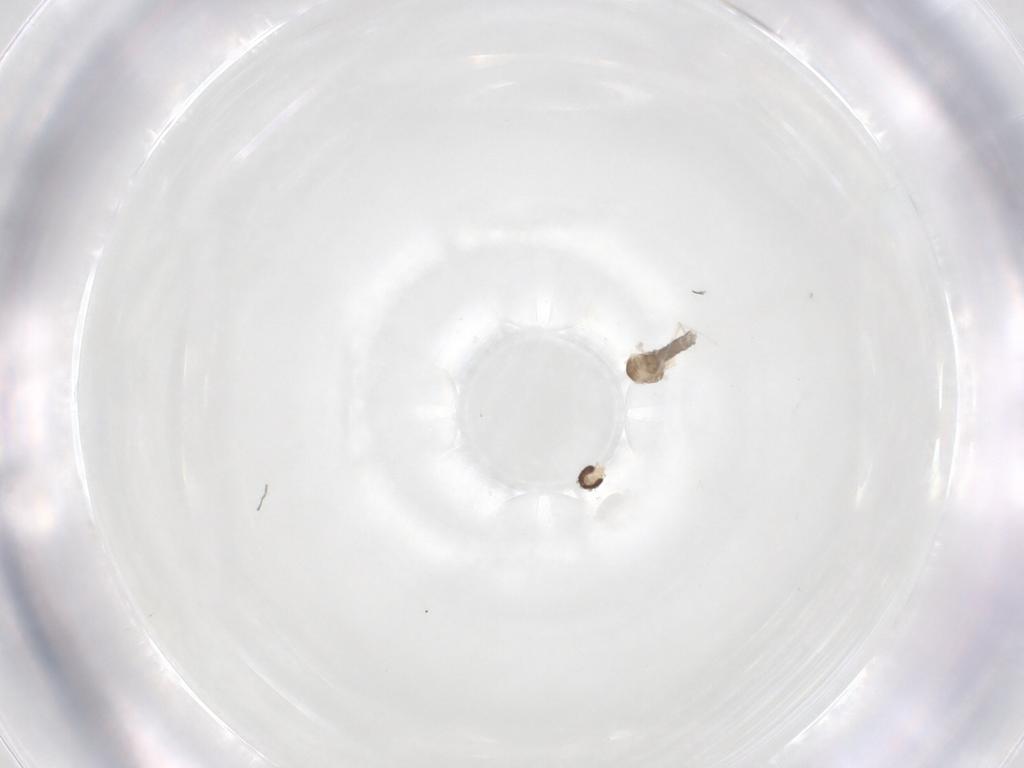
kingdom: Animalia
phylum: Arthropoda
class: Insecta
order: Diptera
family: Cecidomyiidae
